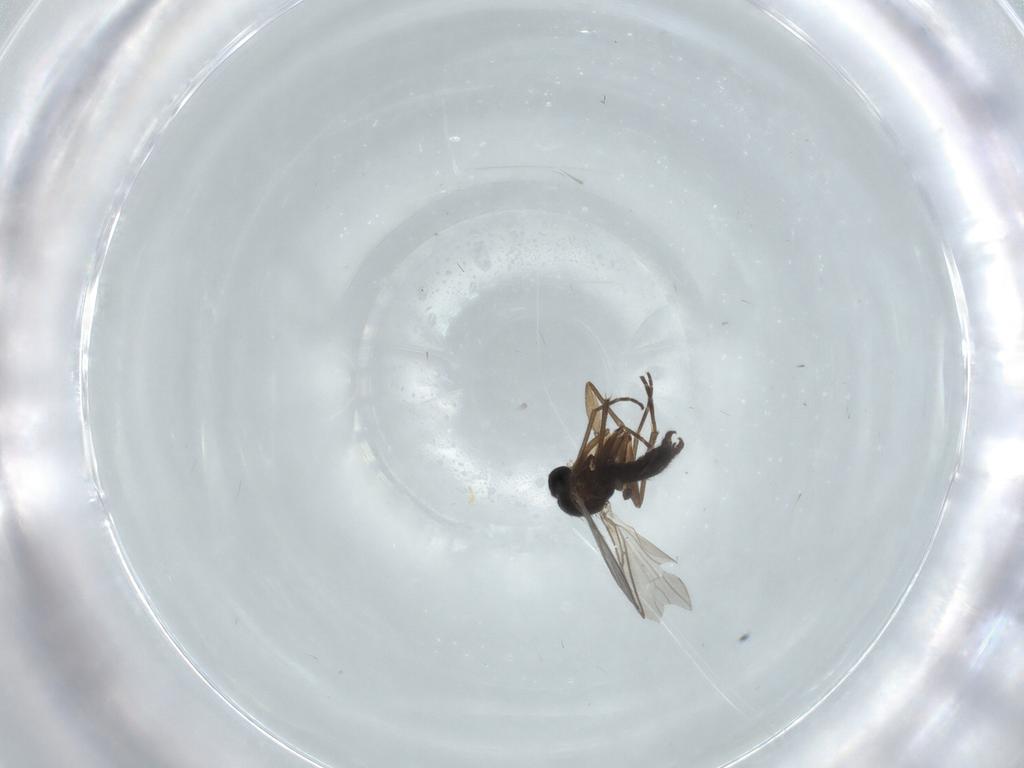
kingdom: Animalia
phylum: Arthropoda
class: Insecta
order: Diptera
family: Sciaridae
